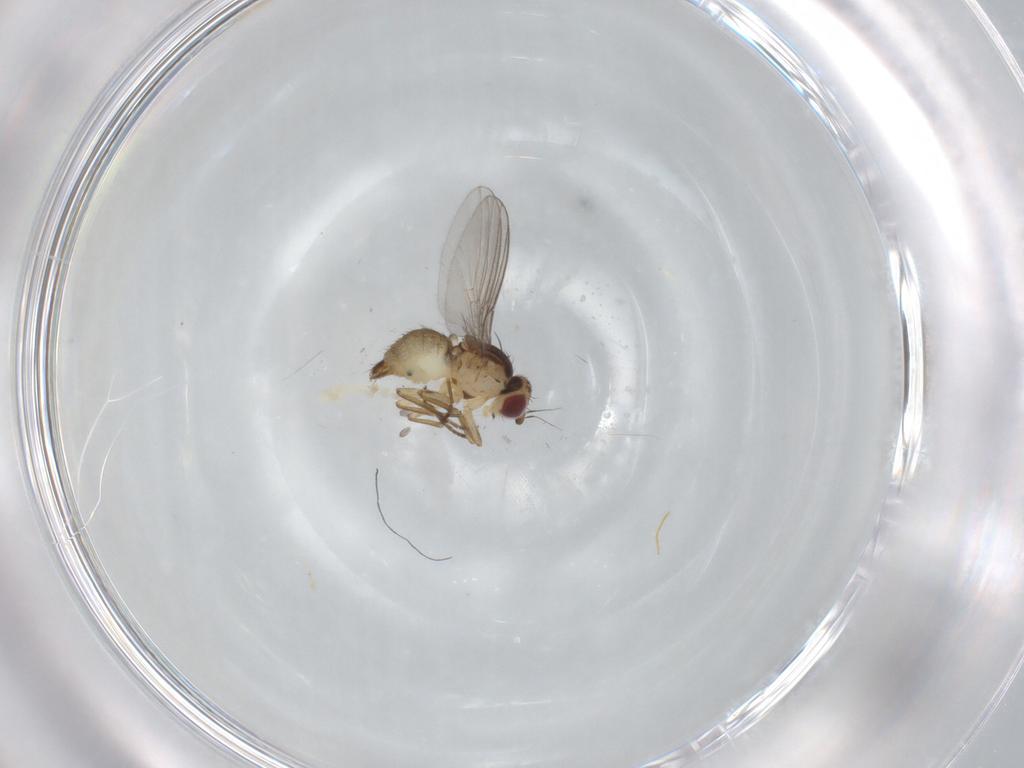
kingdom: Animalia
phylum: Arthropoda
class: Insecta
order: Diptera
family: Agromyzidae
